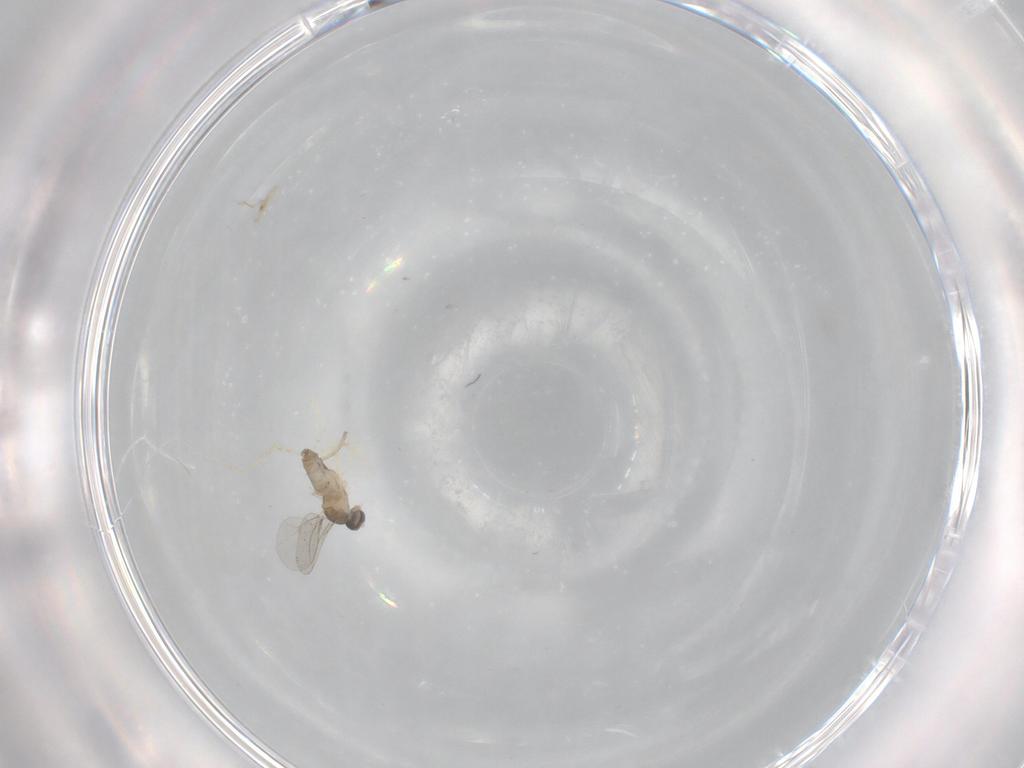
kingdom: Animalia
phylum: Arthropoda
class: Insecta
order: Diptera
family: Cecidomyiidae
